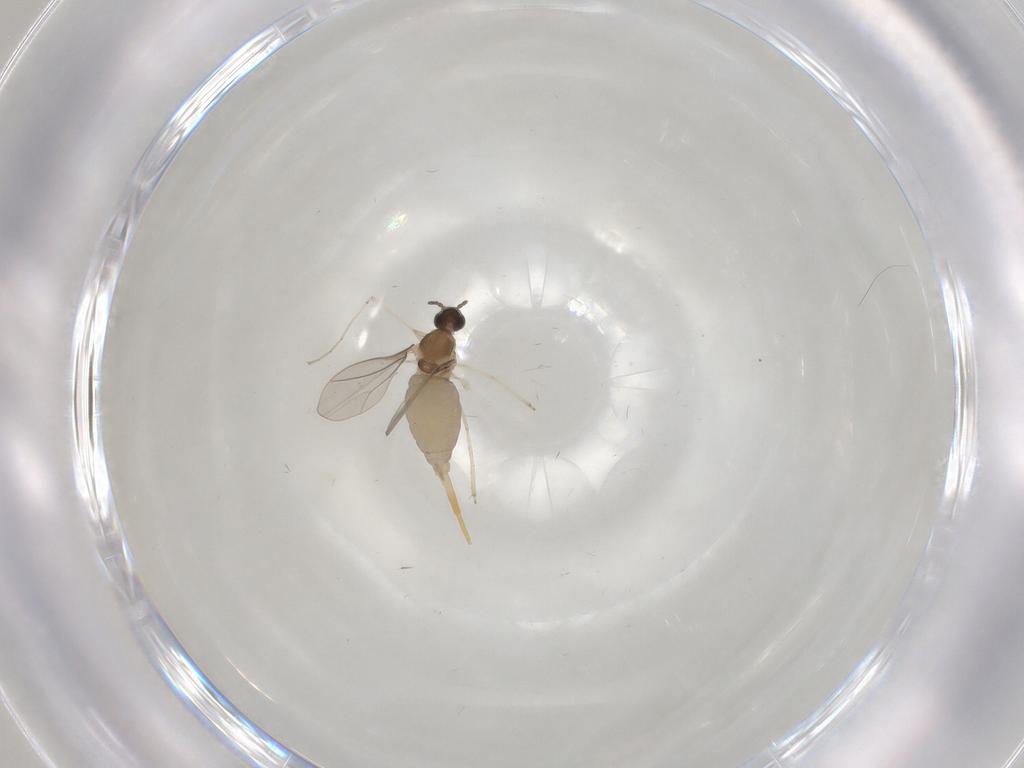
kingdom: Animalia
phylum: Arthropoda
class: Insecta
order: Diptera
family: Cecidomyiidae
